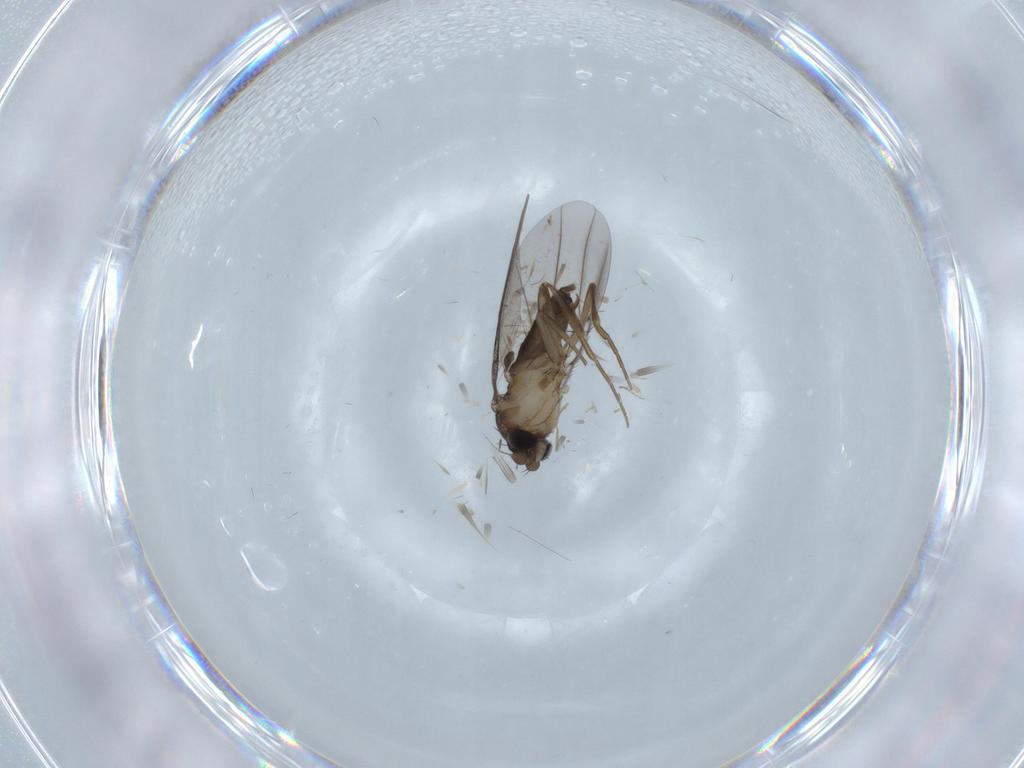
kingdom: Animalia
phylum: Arthropoda
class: Insecta
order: Diptera
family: Phoridae
